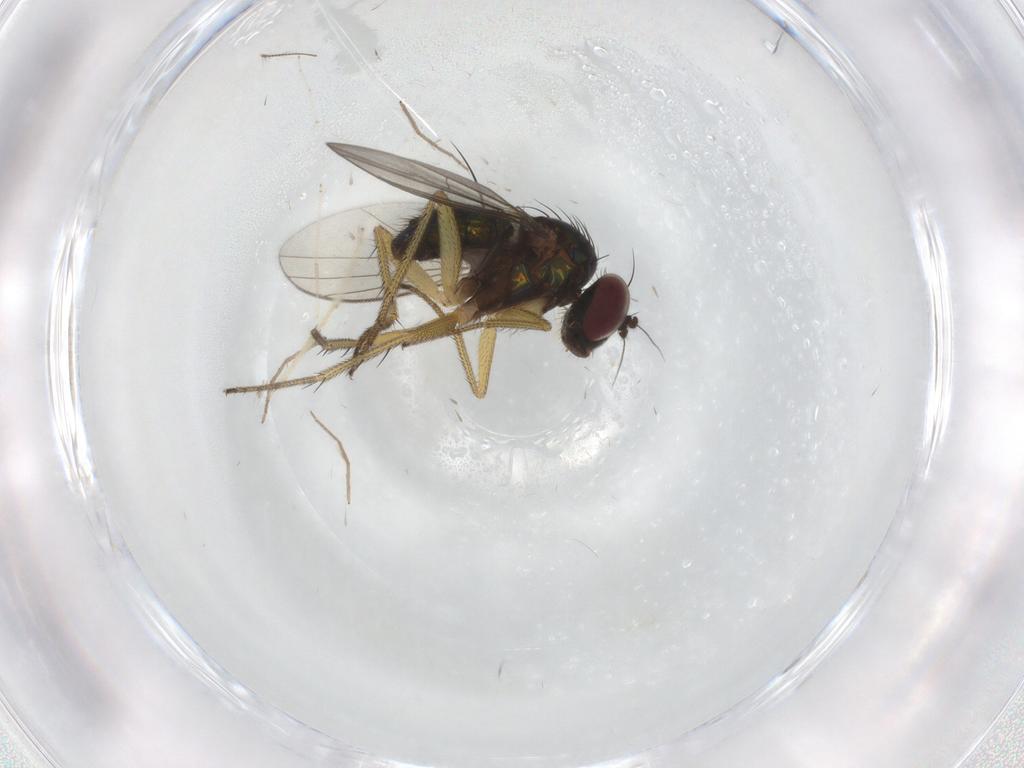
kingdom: Animalia
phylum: Arthropoda
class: Insecta
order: Diptera
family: Chironomidae
